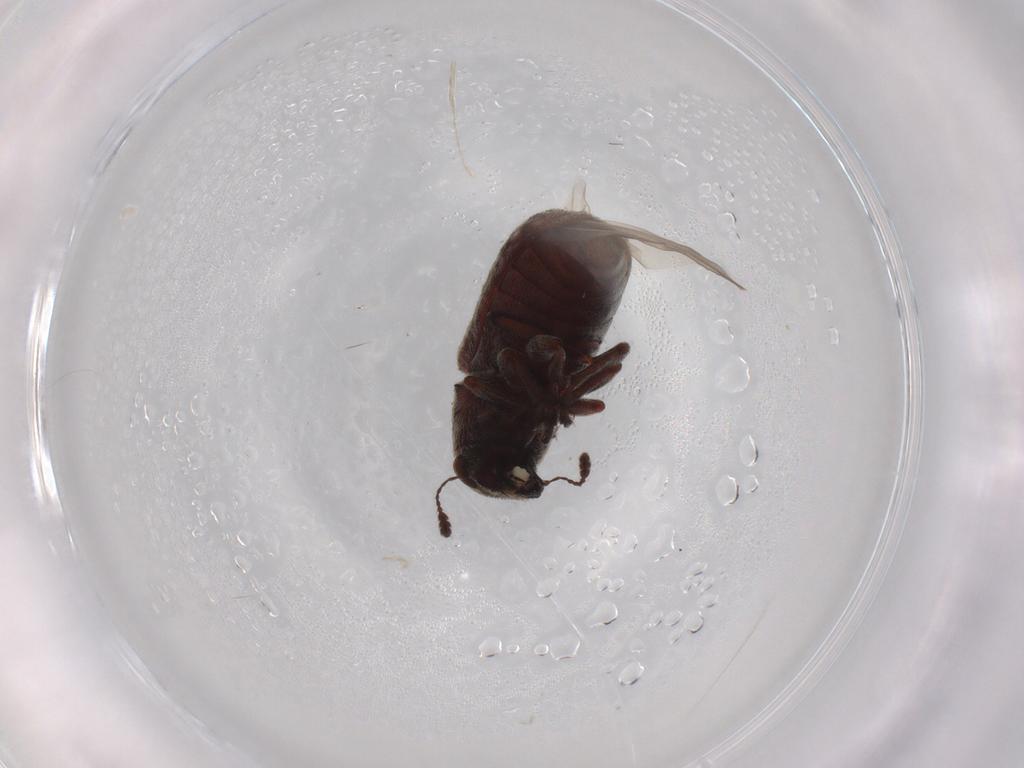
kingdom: Animalia
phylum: Arthropoda
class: Insecta
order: Coleoptera
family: Anthribidae
